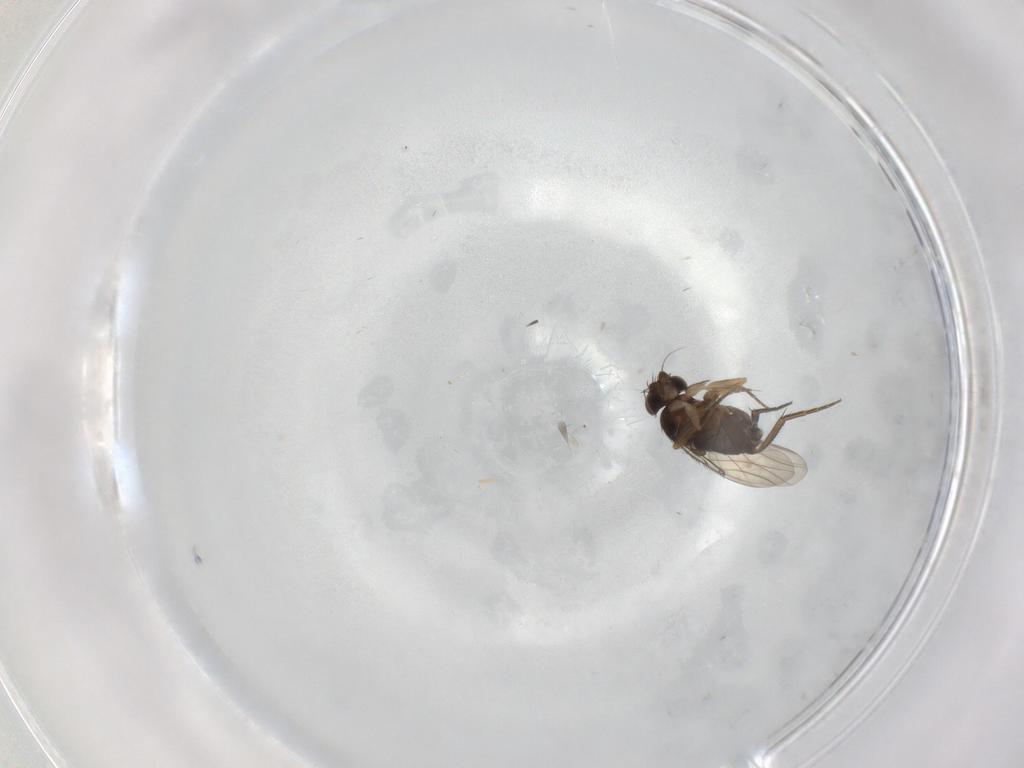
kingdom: Animalia
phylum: Arthropoda
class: Insecta
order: Diptera
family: Phoridae
